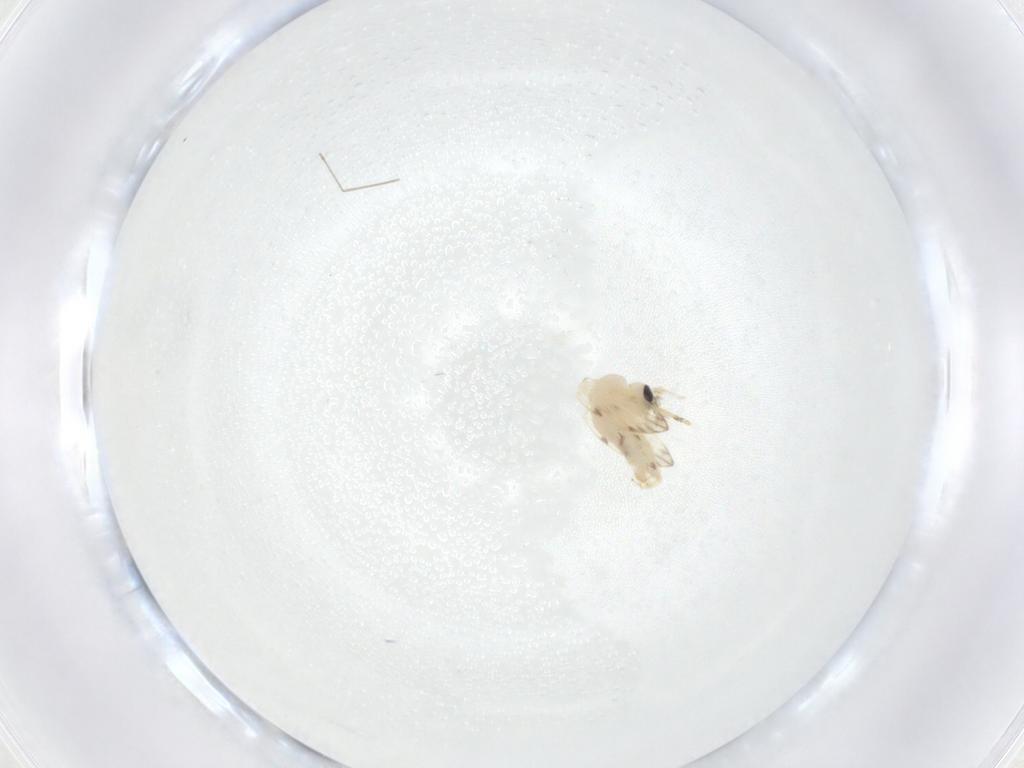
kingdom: Animalia
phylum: Arthropoda
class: Insecta
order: Diptera
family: Psychodidae
